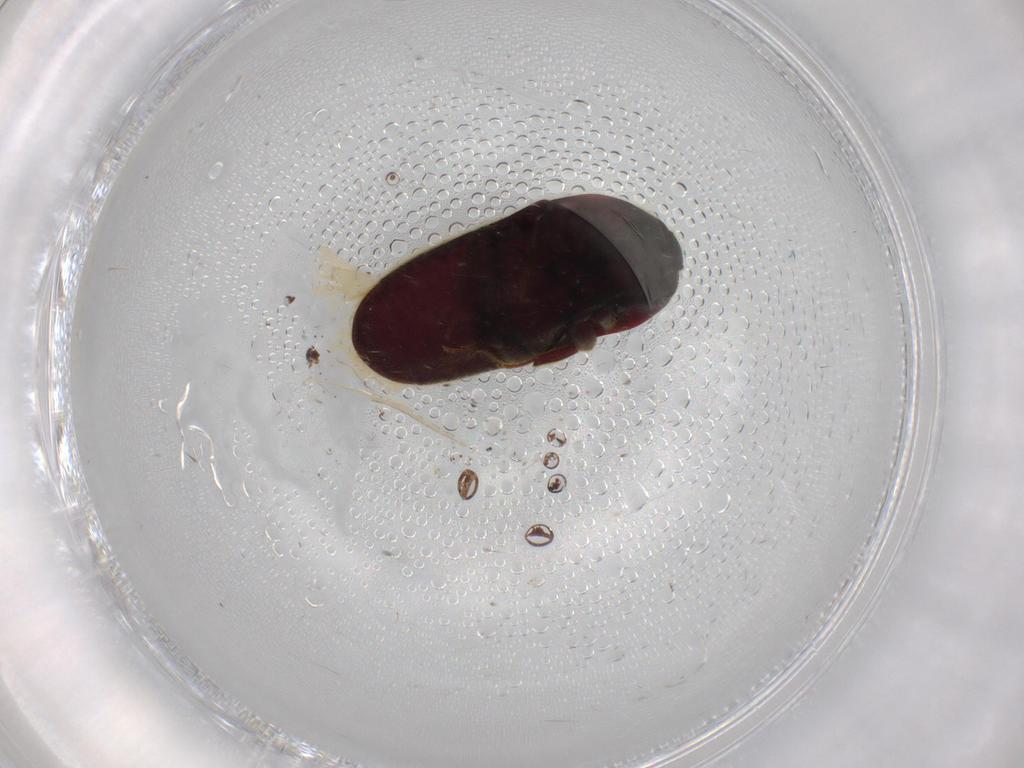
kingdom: Animalia
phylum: Arthropoda
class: Insecta
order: Coleoptera
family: Throscidae
